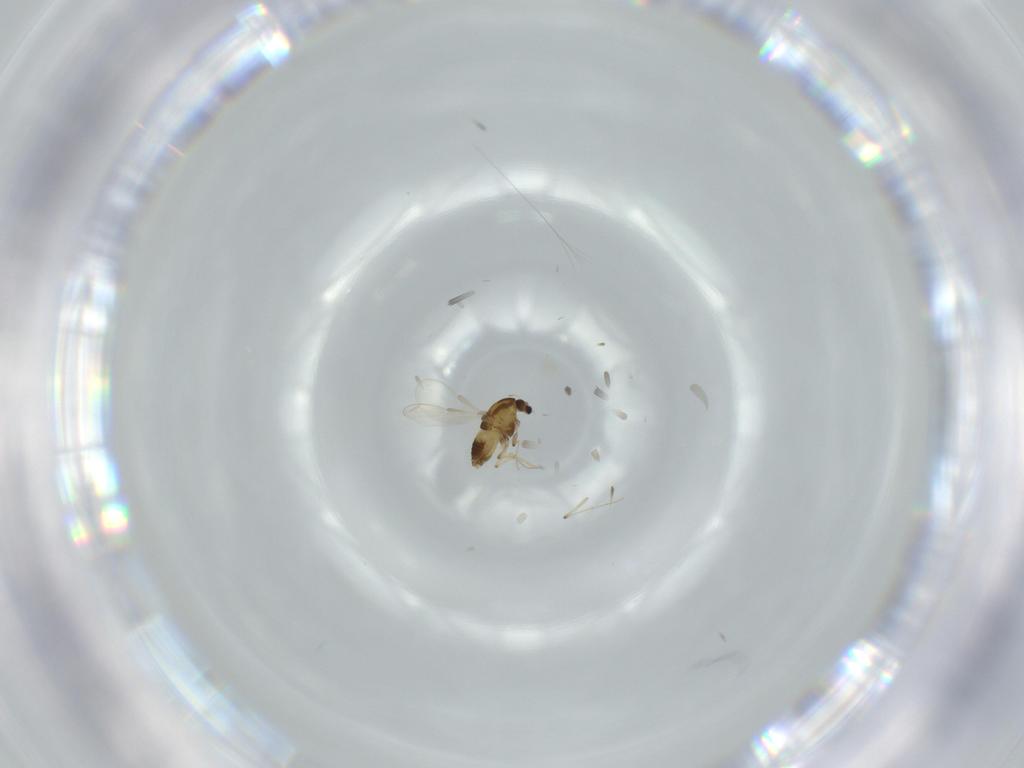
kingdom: Animalia
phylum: Arthropoda
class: Insecta
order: Diptera
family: Chironomidae
